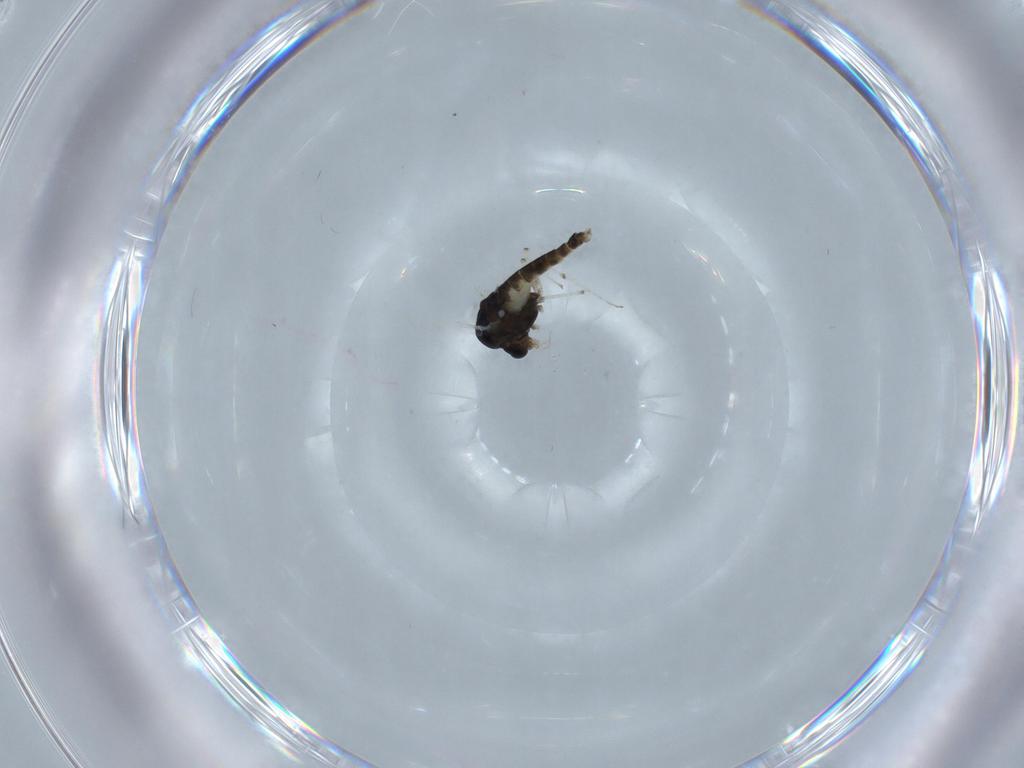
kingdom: Animalia
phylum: Arthropoda
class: Insecta
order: Diptera
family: Chironomidae
